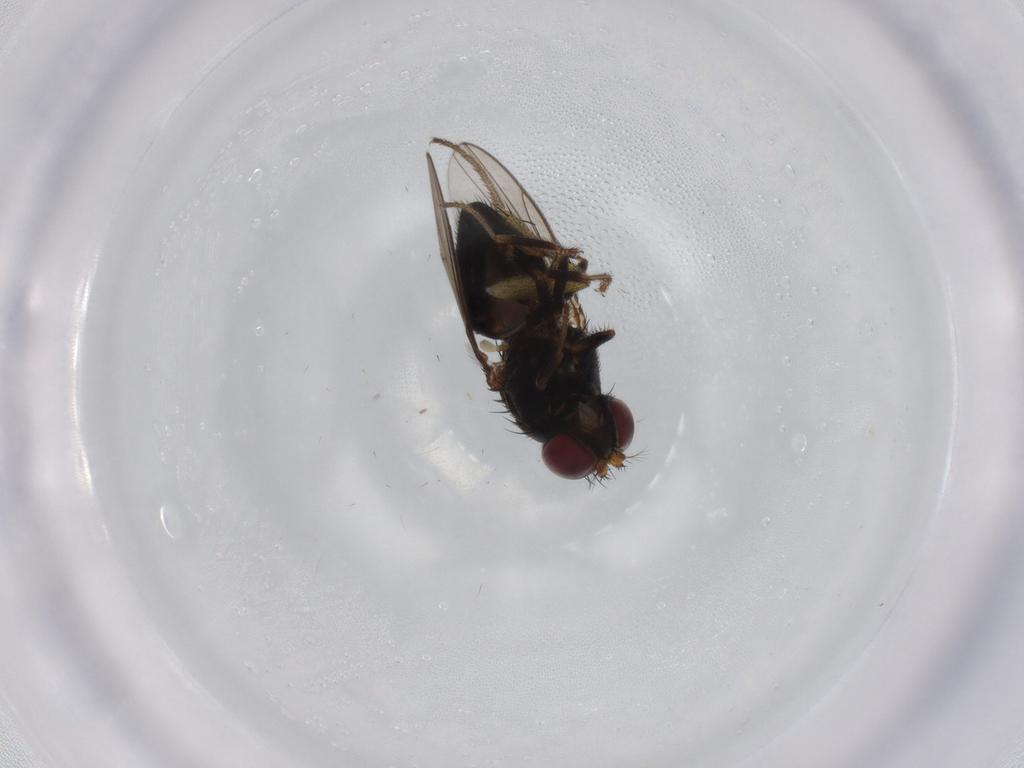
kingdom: Animalia
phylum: Arthropoda
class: Insecta
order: Diptera
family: Dolichopodidae
